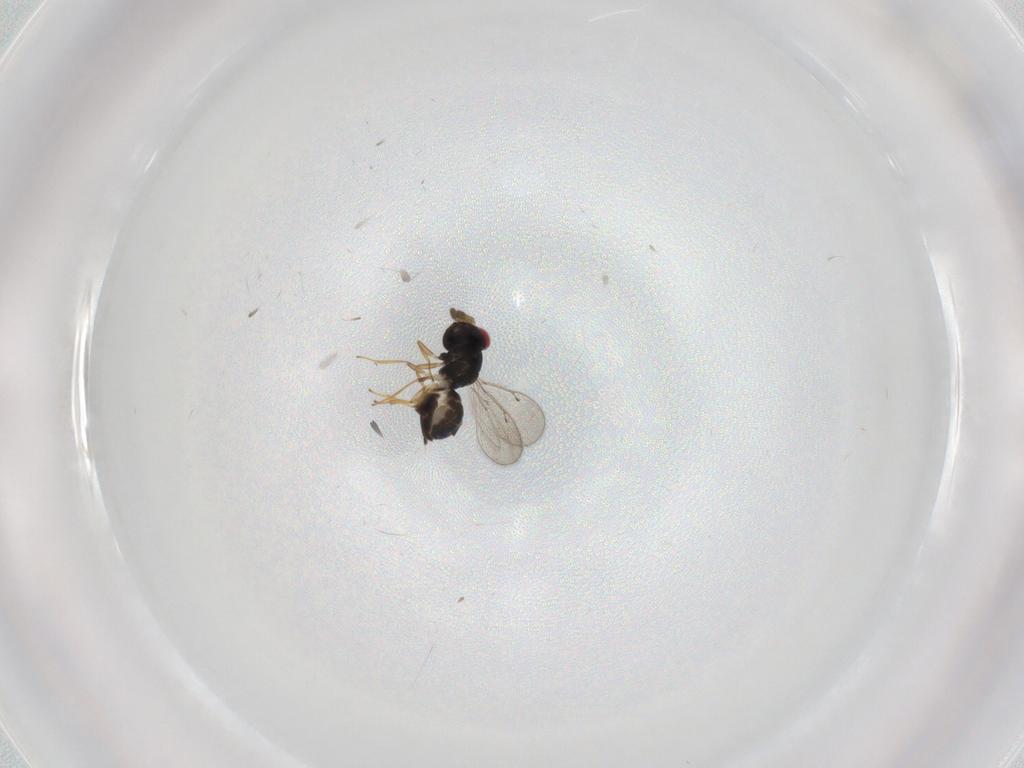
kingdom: Animalia
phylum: Arthropoda
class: Insecta
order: Hymenoptera
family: Eulophidae
